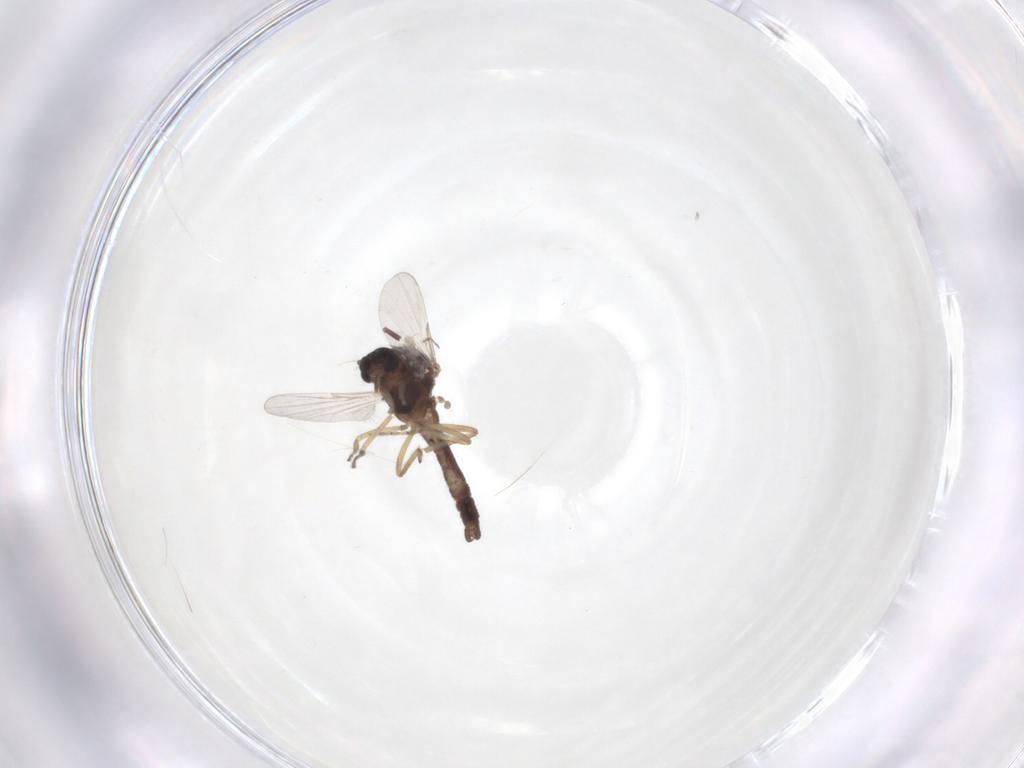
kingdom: Animalia
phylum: Arthropoda
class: Insecta
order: Diptera
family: Ceratopogonidae
